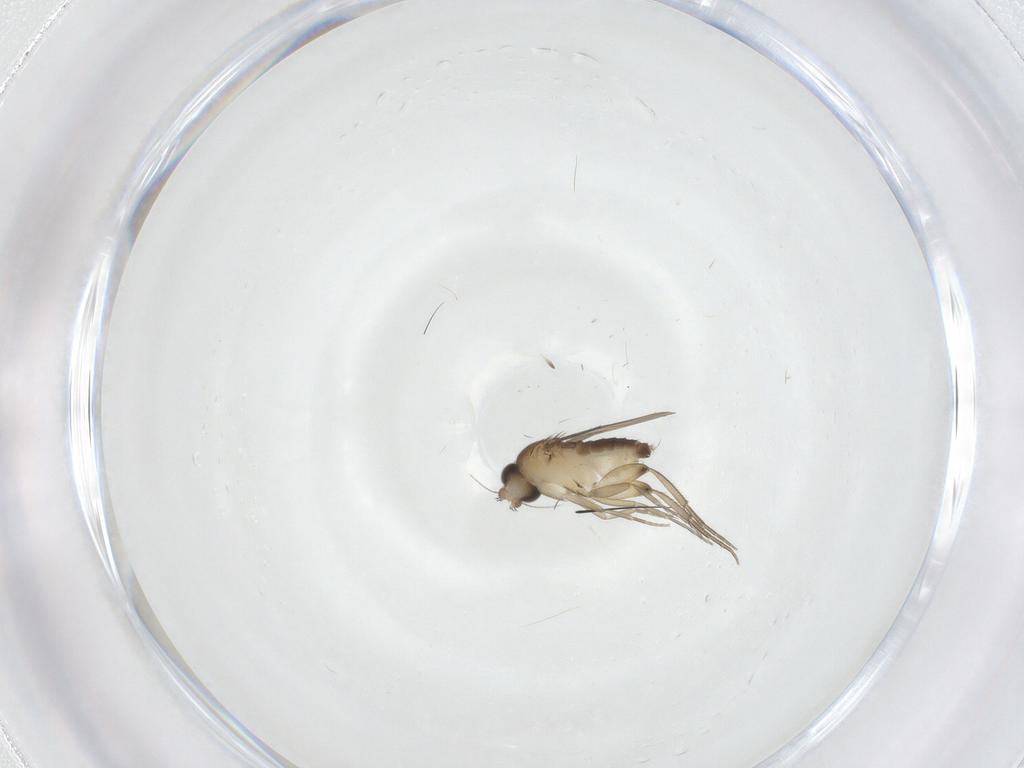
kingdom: Animalia
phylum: Arthropoda
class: Insecta
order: Diptera
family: Phoridae
